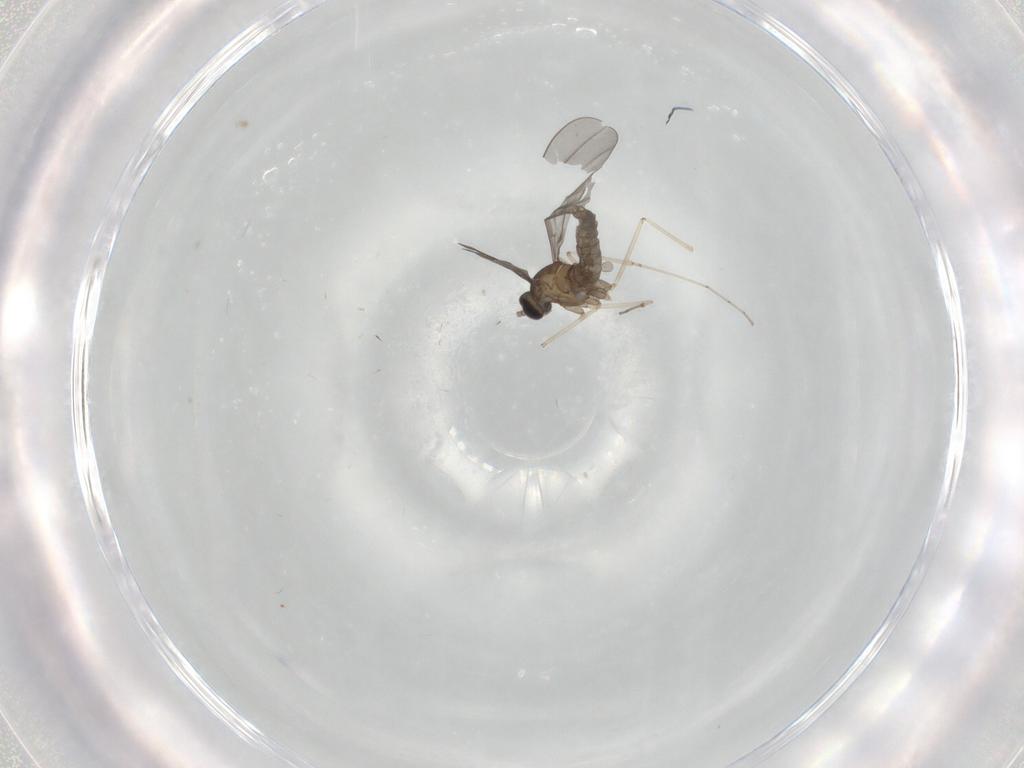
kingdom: Animalia
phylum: Arthropoda
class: Insecta
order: Diptera
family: Cecidomyiidae
